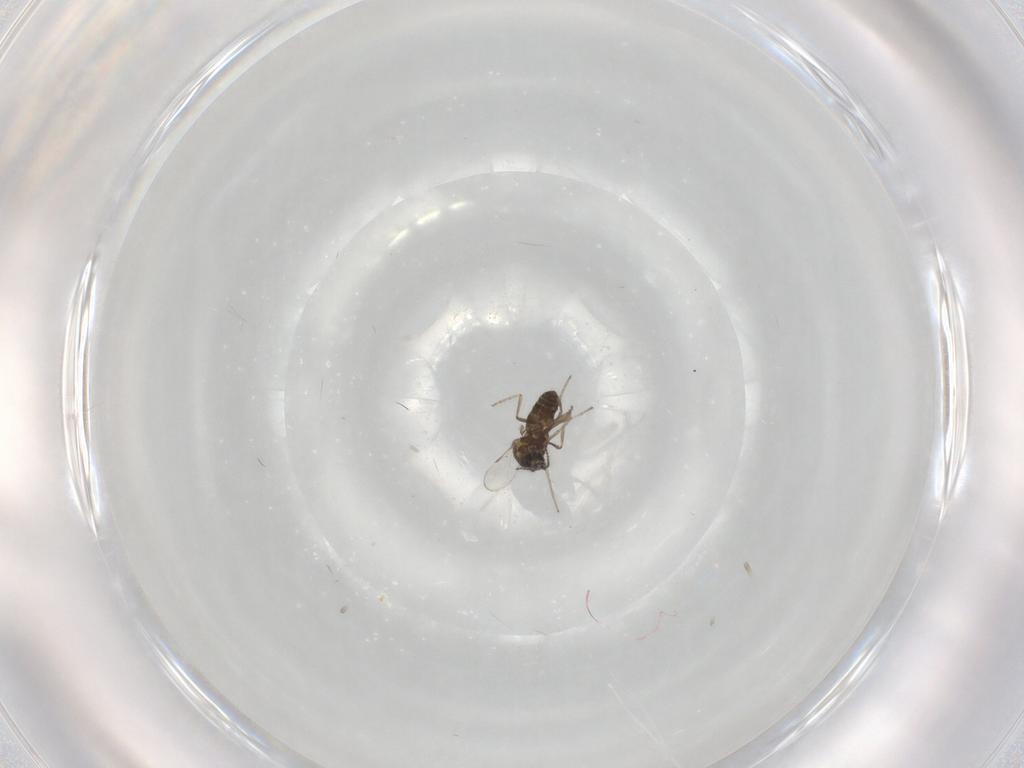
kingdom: Animalia
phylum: Arthropoda
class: Insecta
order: Diptera
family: Ceratopogonidae
